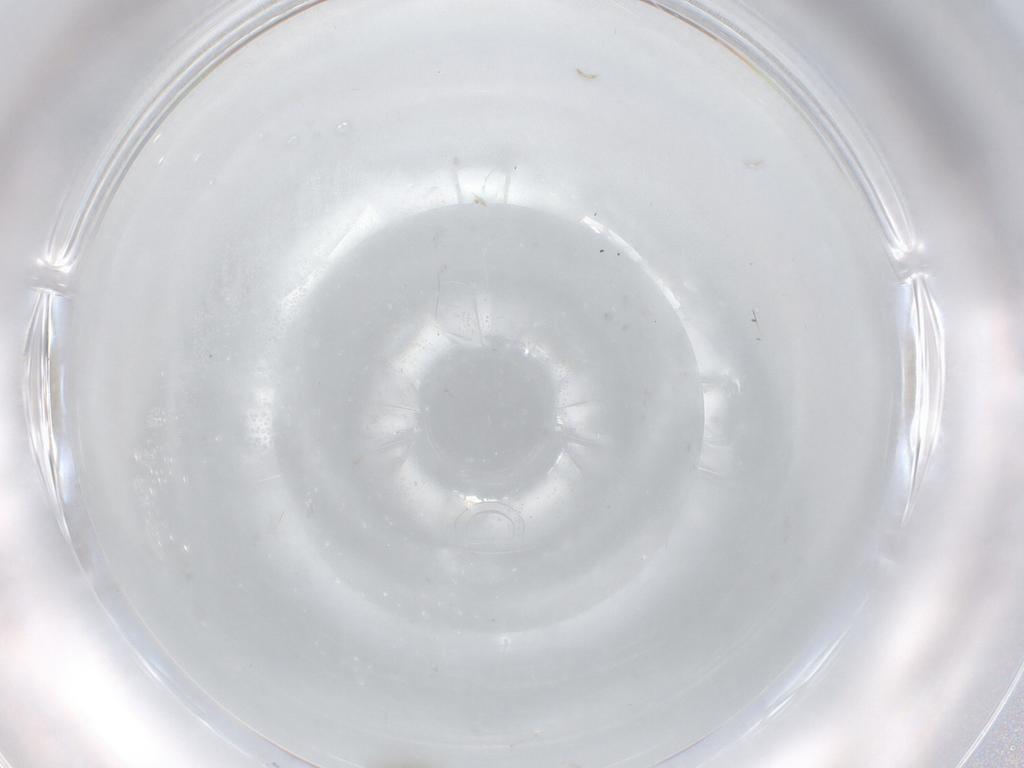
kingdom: Animalia
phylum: Arthropoda
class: Insecta
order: Diptera
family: Cecidomyiidae
